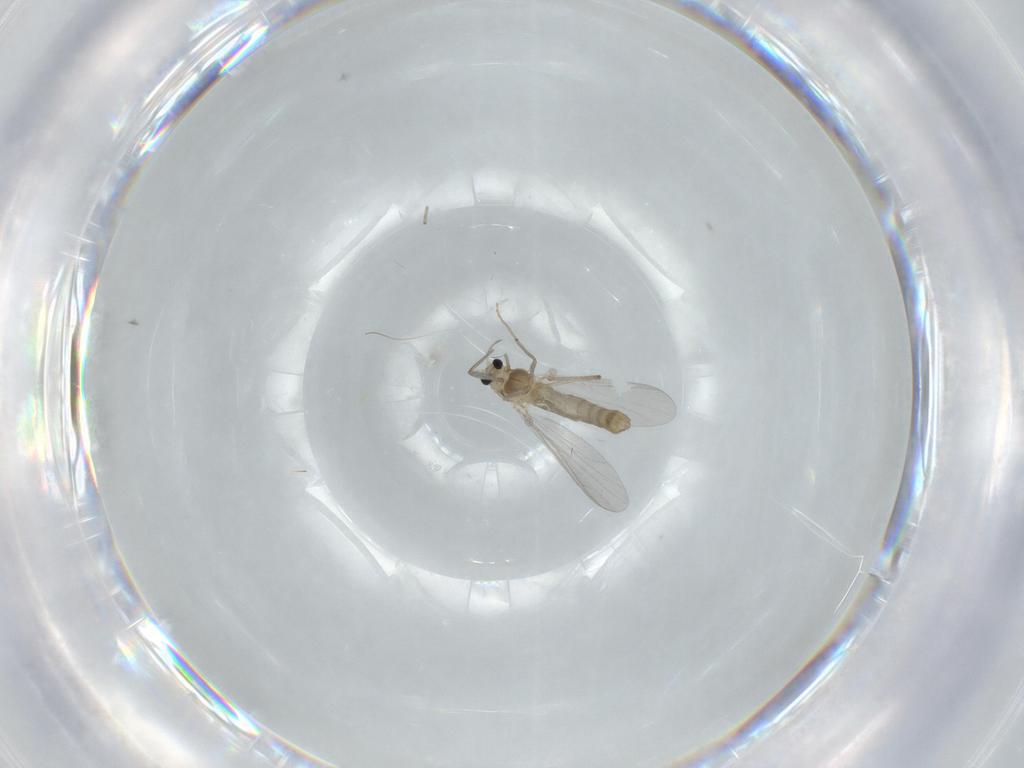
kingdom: Animalia
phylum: Arthropoda
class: Insecta
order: Diptera
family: Chironomidae
